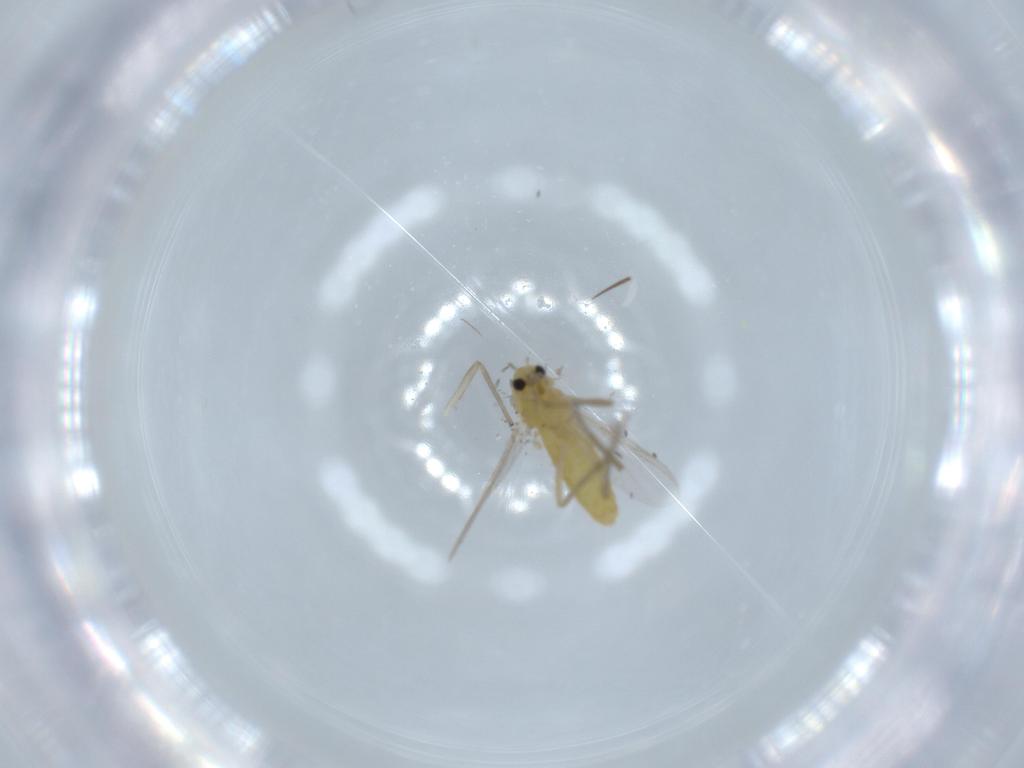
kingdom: Animalia
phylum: Arthropoda
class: Insecta
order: Diptera
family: Chironomidae
